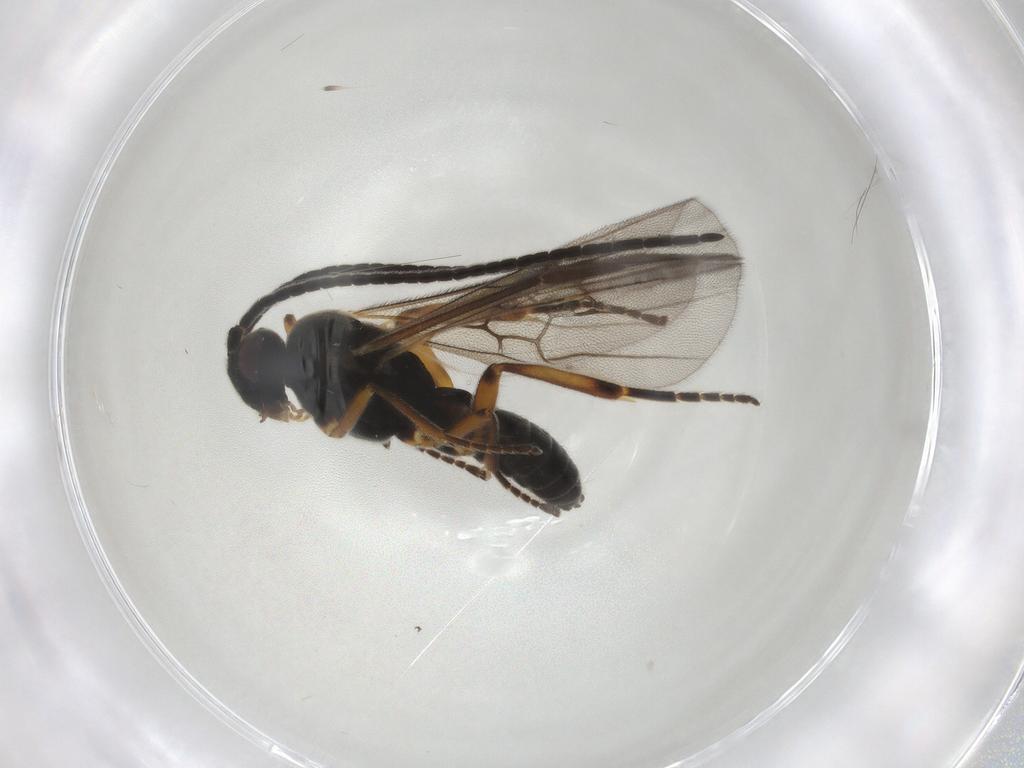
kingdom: Animalia
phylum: Arthropoda
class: Insecta
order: Hymenoptera
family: Braconidae
